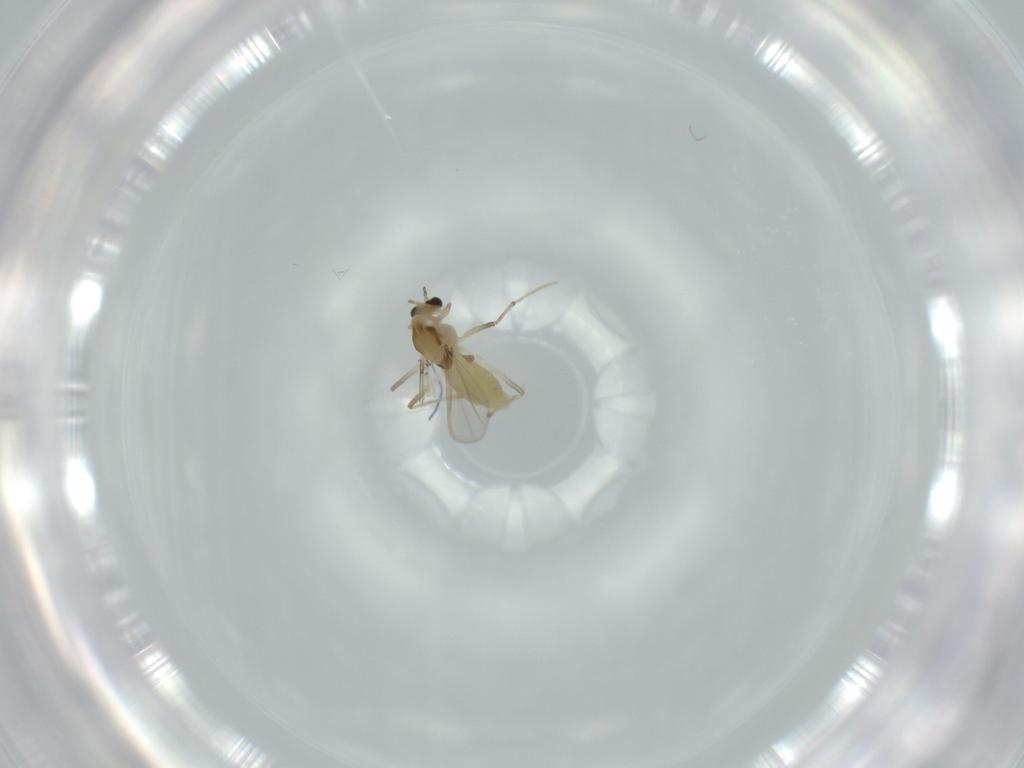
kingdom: Animalia
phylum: Arthropoda
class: Insecta
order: Diptera
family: Chironomidae
